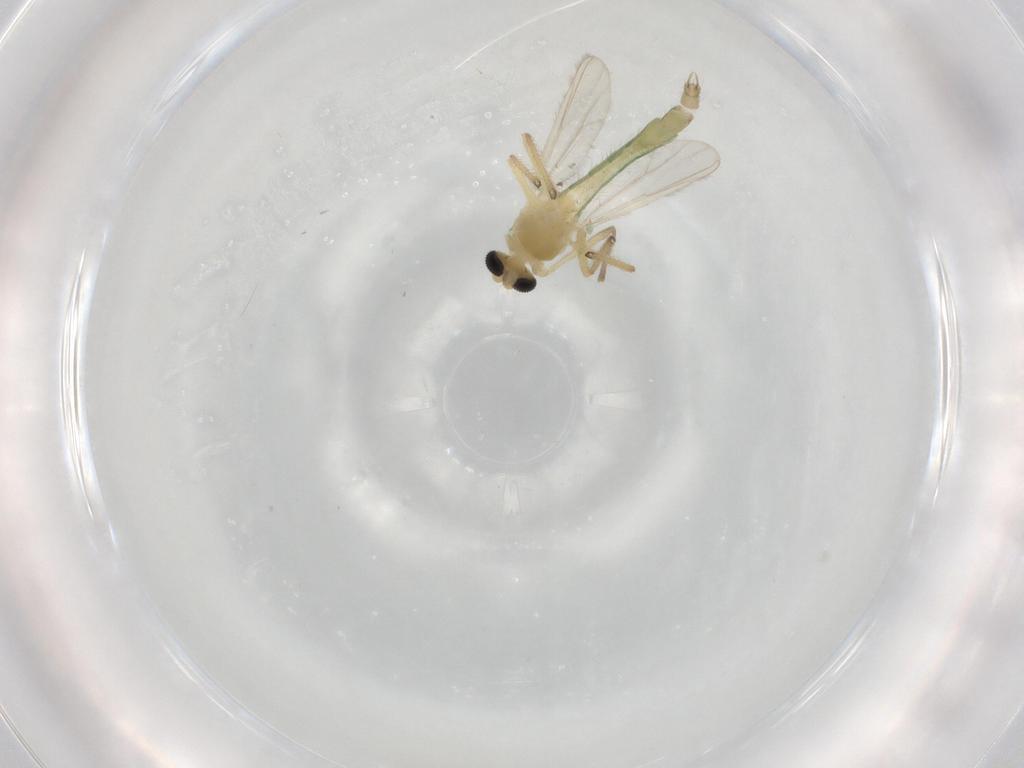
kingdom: Animalia
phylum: Arthropoda
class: Insecta
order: Diptera
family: Chironomidae
